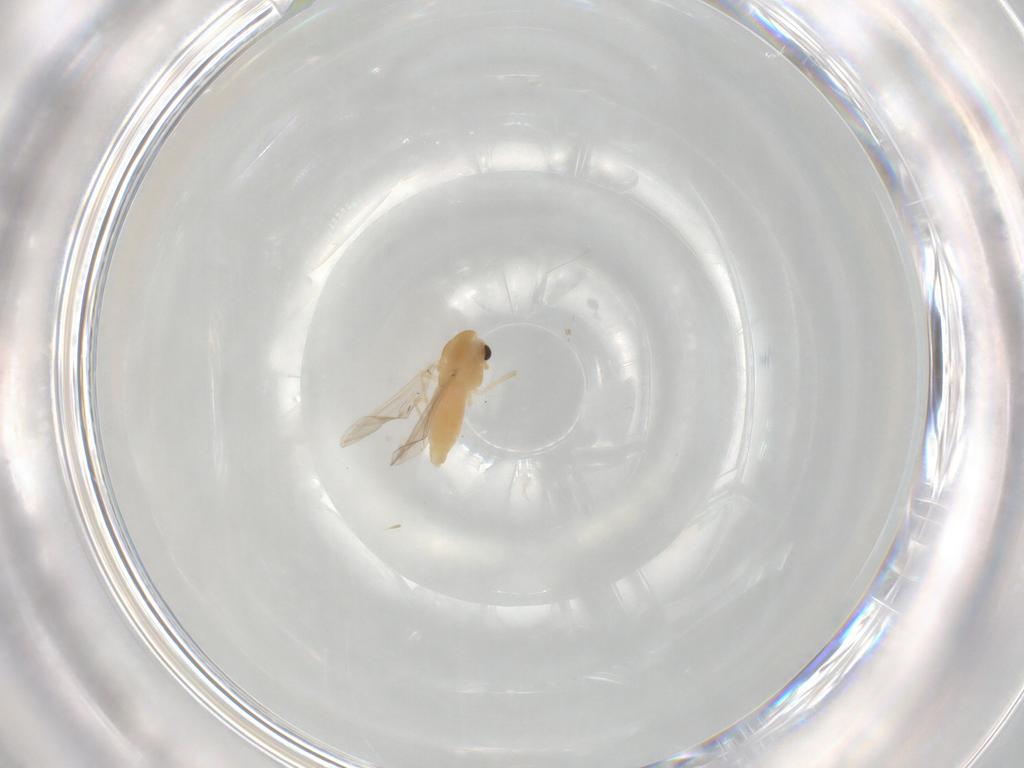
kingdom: Animalia
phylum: Arthropoda
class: Insecta
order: Diptera
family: Chironomidae
